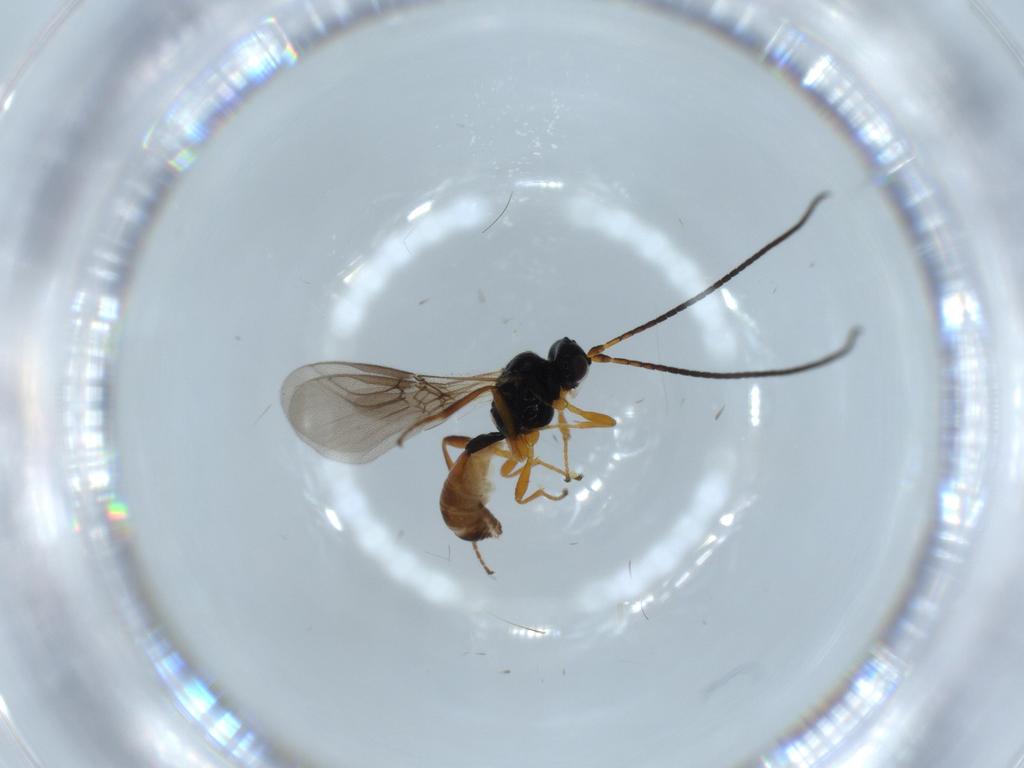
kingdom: Animalia
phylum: Arthropoda
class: Insecta
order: Hymenoptera
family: Braconidae
